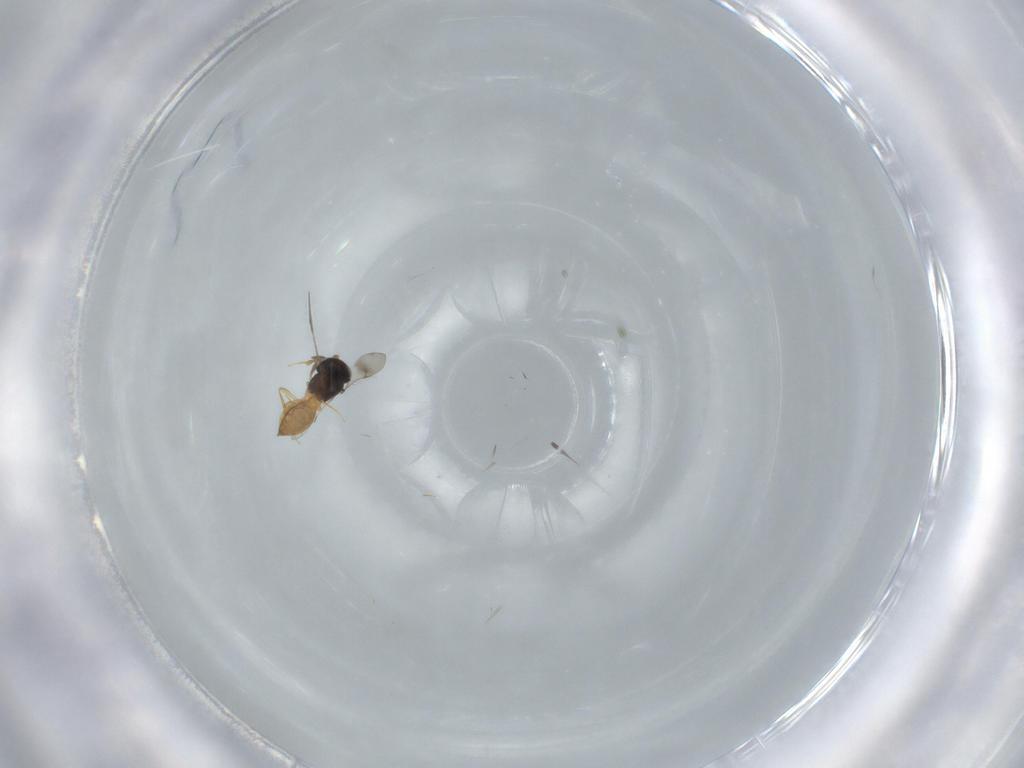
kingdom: Animalia
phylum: Arthropoda
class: Insecta
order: Hymenoptera
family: Scelionidae
